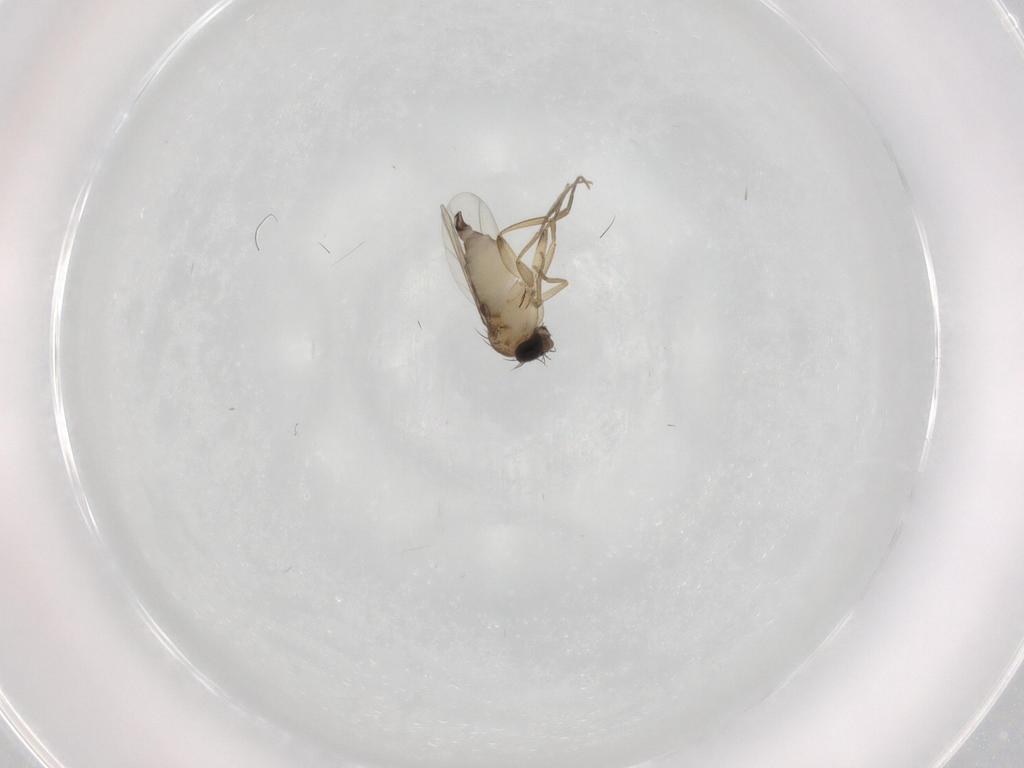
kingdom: Animalia
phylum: Arthropoda
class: Insecta
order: Diptera
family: Phoridae
